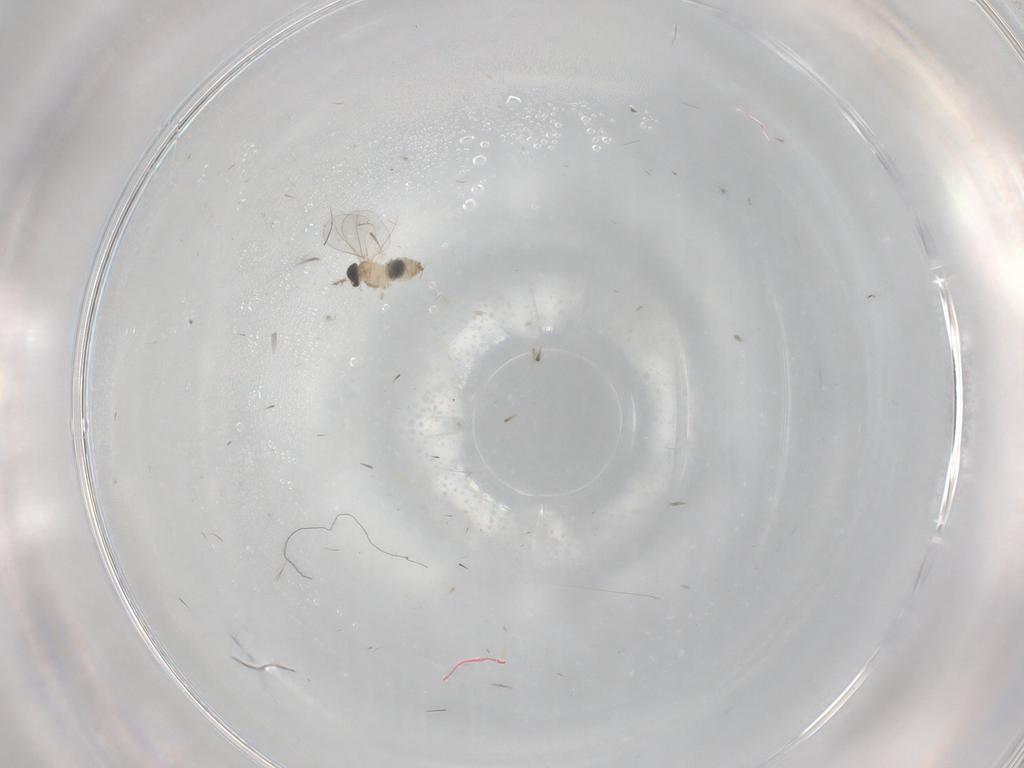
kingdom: Animalia
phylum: Arthropoda
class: Insecta
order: Diptera
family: Cecidomyiidae
